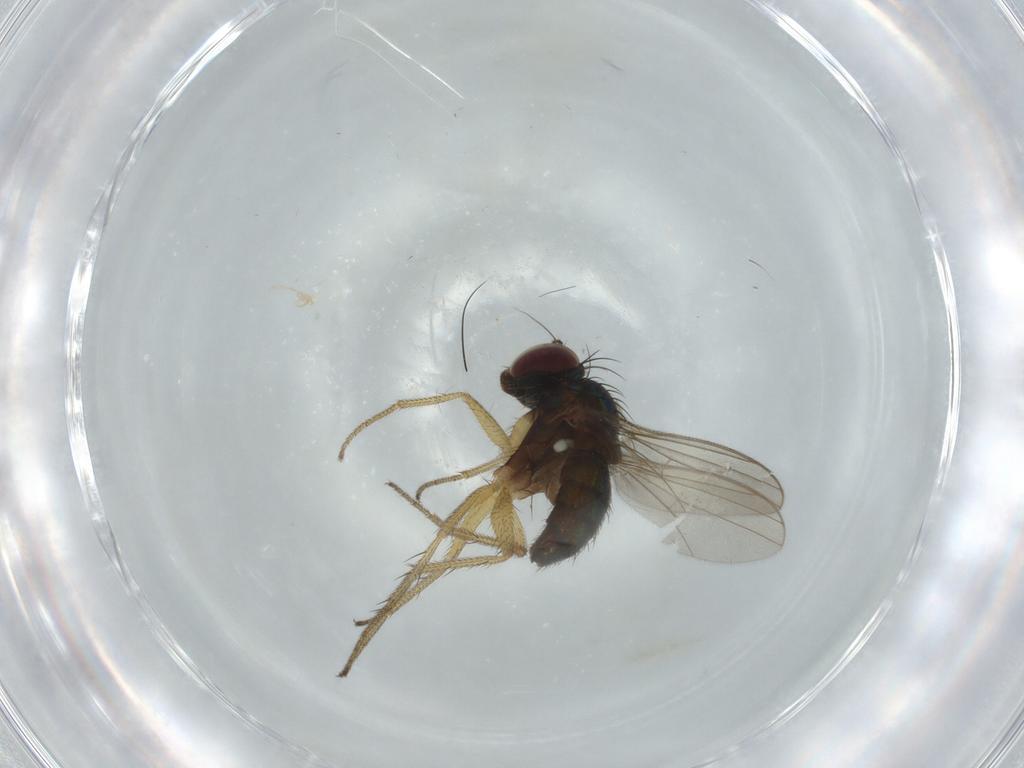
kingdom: Animalia
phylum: Arthropoda
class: Insecta
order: Diptera
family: Dolichopodidae
